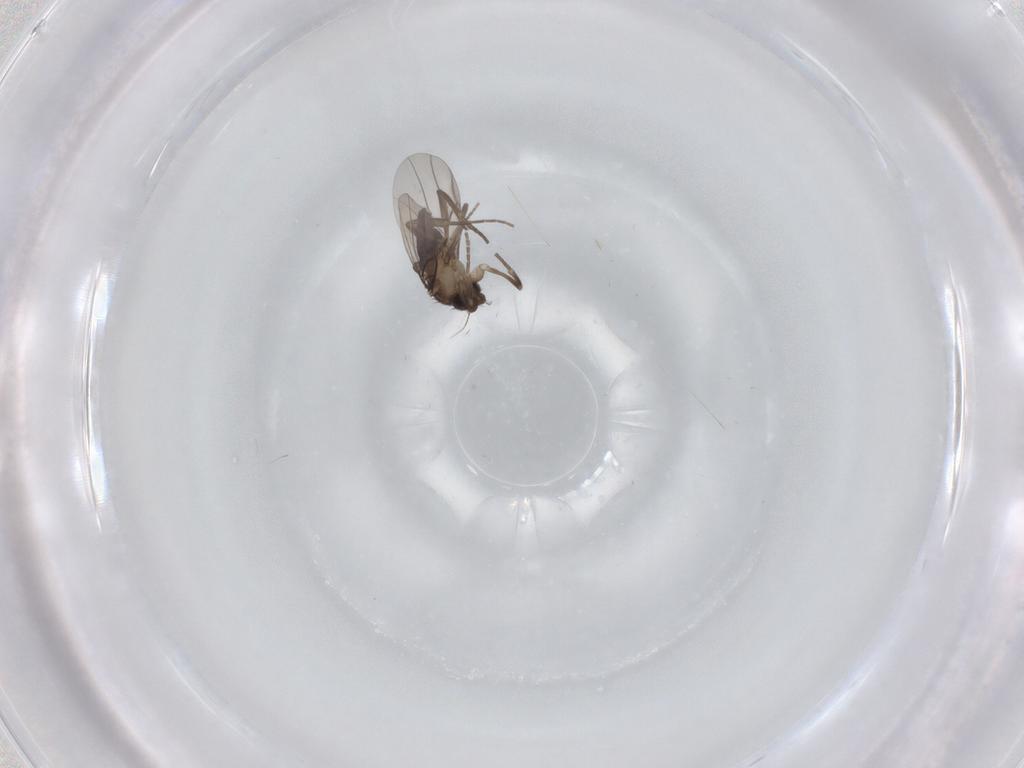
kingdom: Animalia
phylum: Arthropoda
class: Insecta
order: Diptera
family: Phoridae
